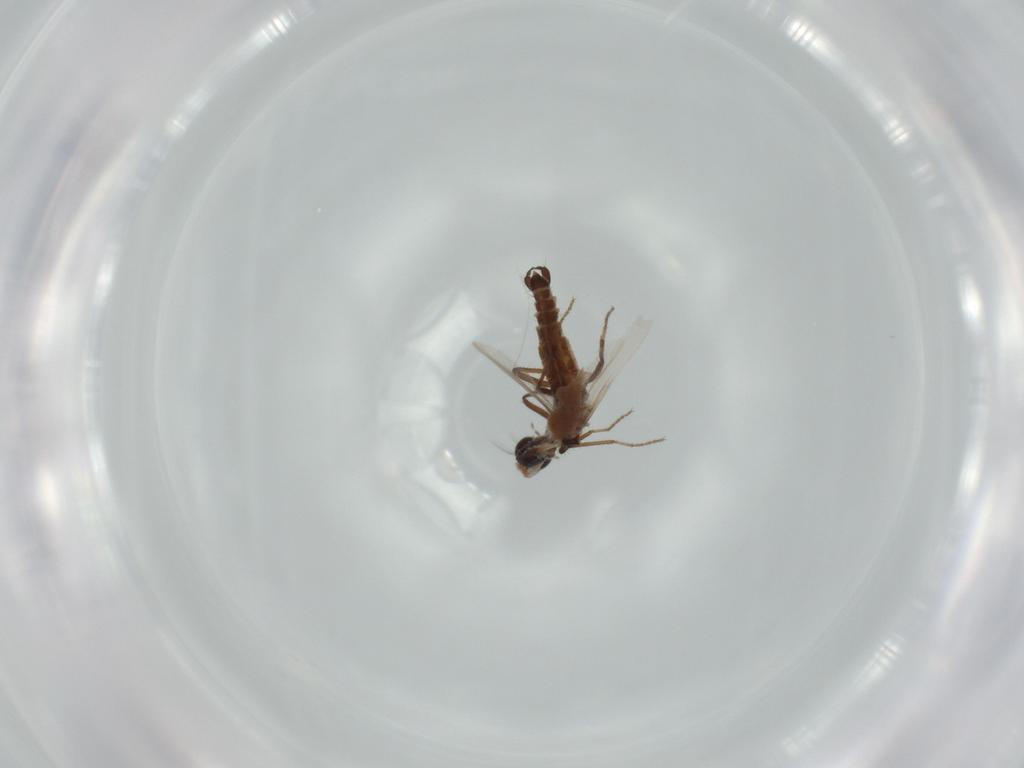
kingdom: Animalia
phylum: Arthropoda
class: Insecta
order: Diptera
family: Ceratopogonidae
